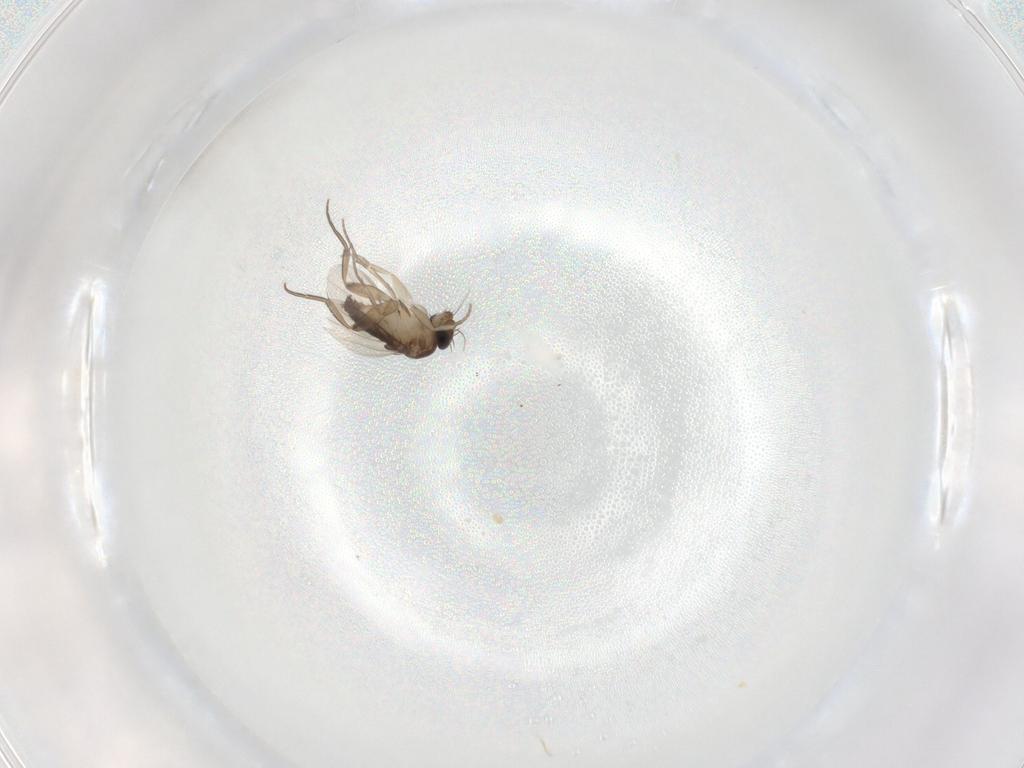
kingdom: Animalia
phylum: Arthropoda
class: Insecta
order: Diptera
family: Phoridae
